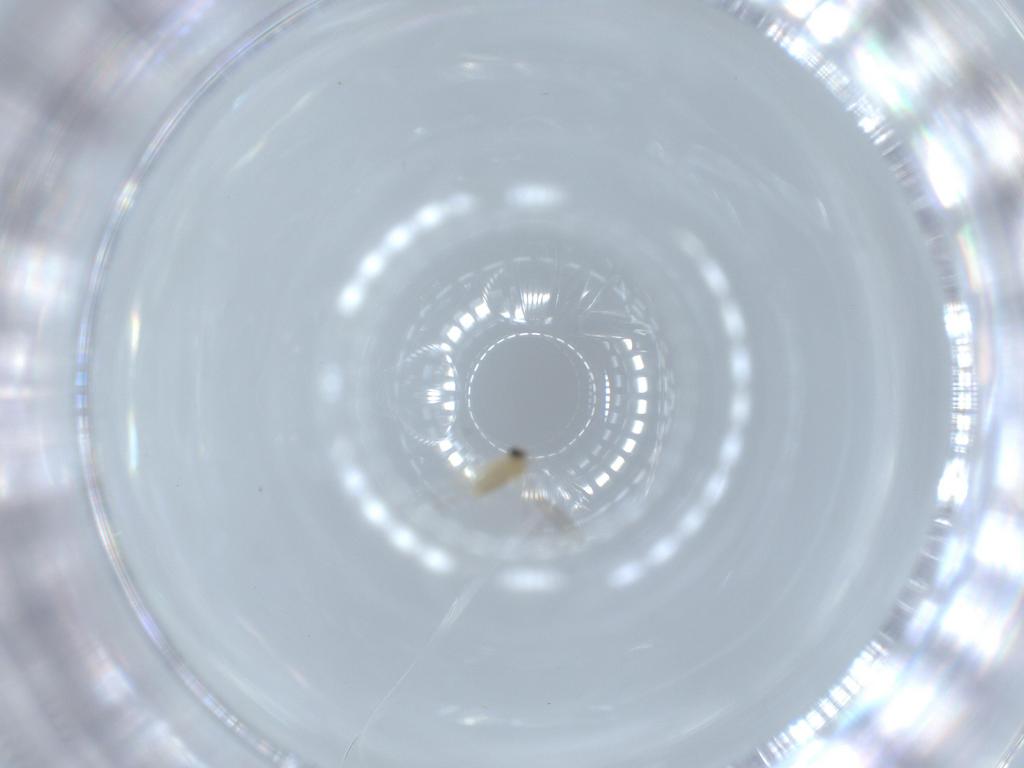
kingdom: Animalia
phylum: Arthropoda
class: Insecta
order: Diptera
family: Cecidomyiidae
